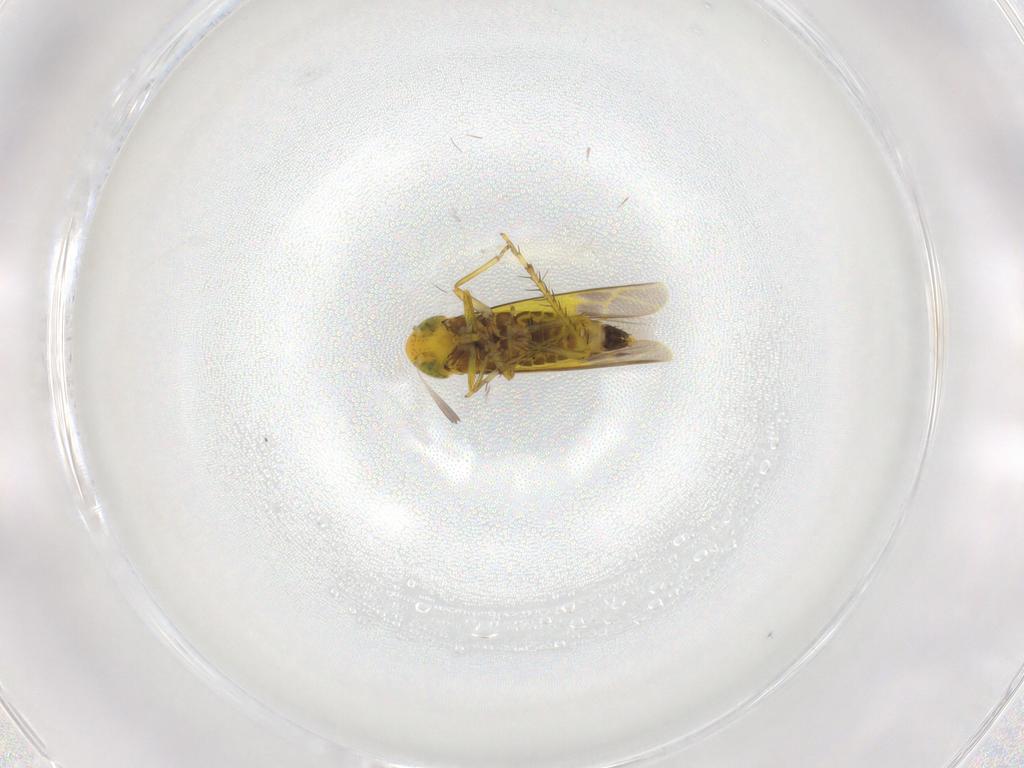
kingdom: Animalia
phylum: Arthropoda
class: Insecta
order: Hemiptera
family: Cicadellidae
